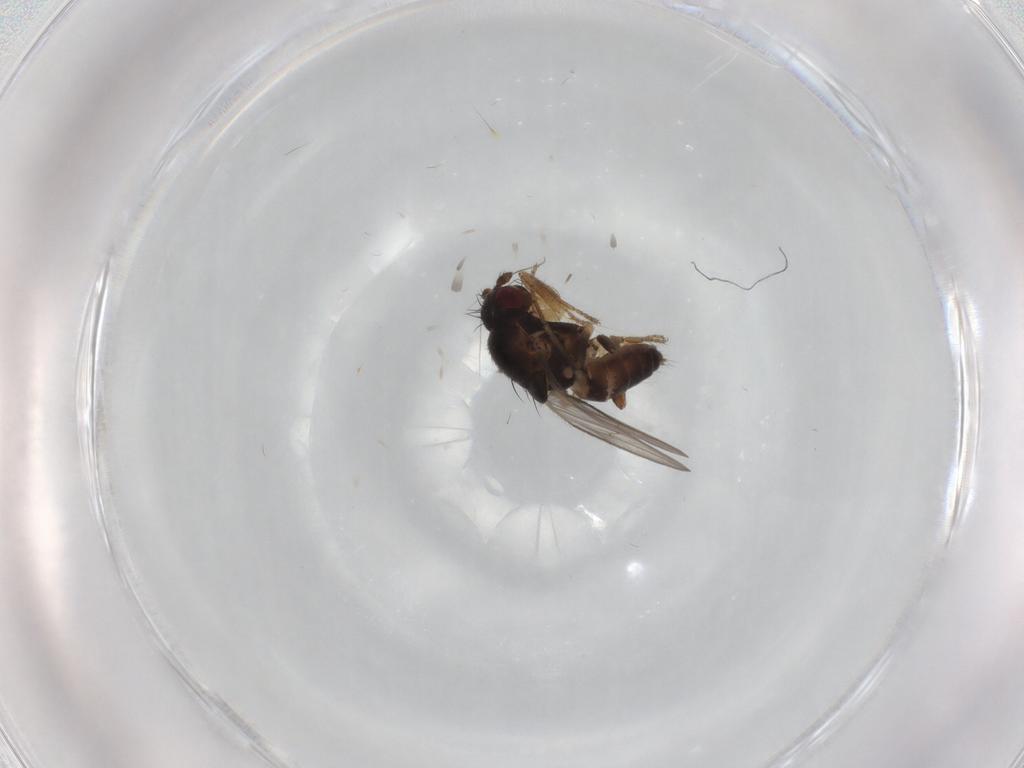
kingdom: Animalia
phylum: Arthropoda
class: Insecta
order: Diptera
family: Sphaeroceridae
